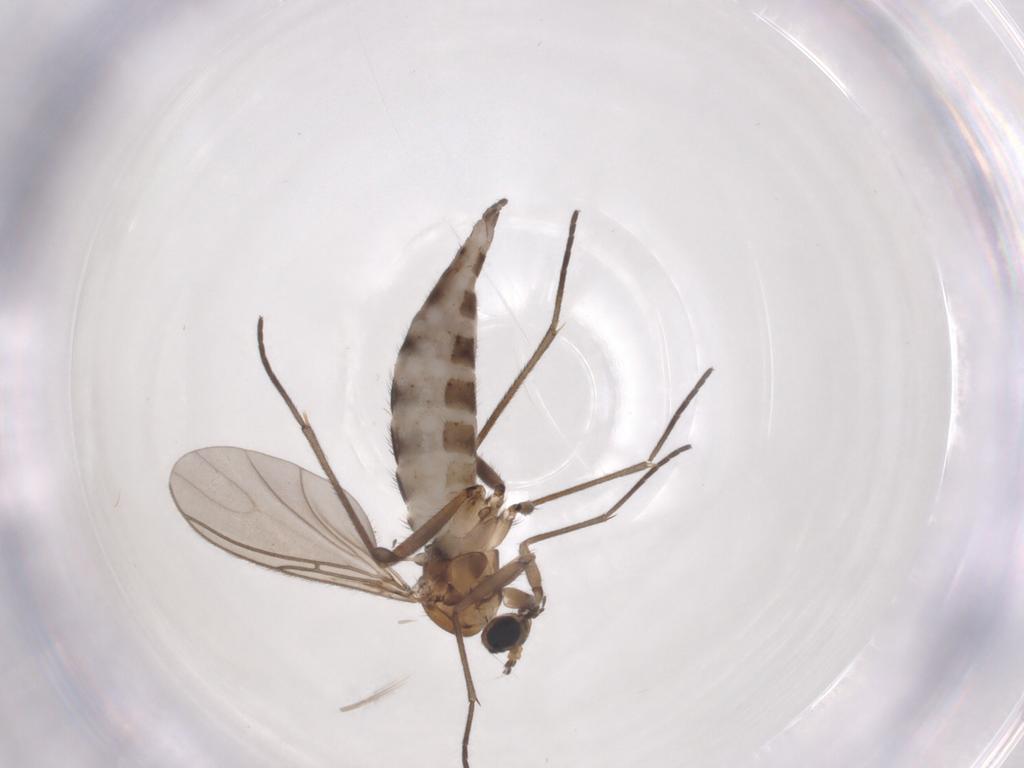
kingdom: Animalia
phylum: Arthropoda
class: Insecta
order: Diptera
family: Sciaridae
